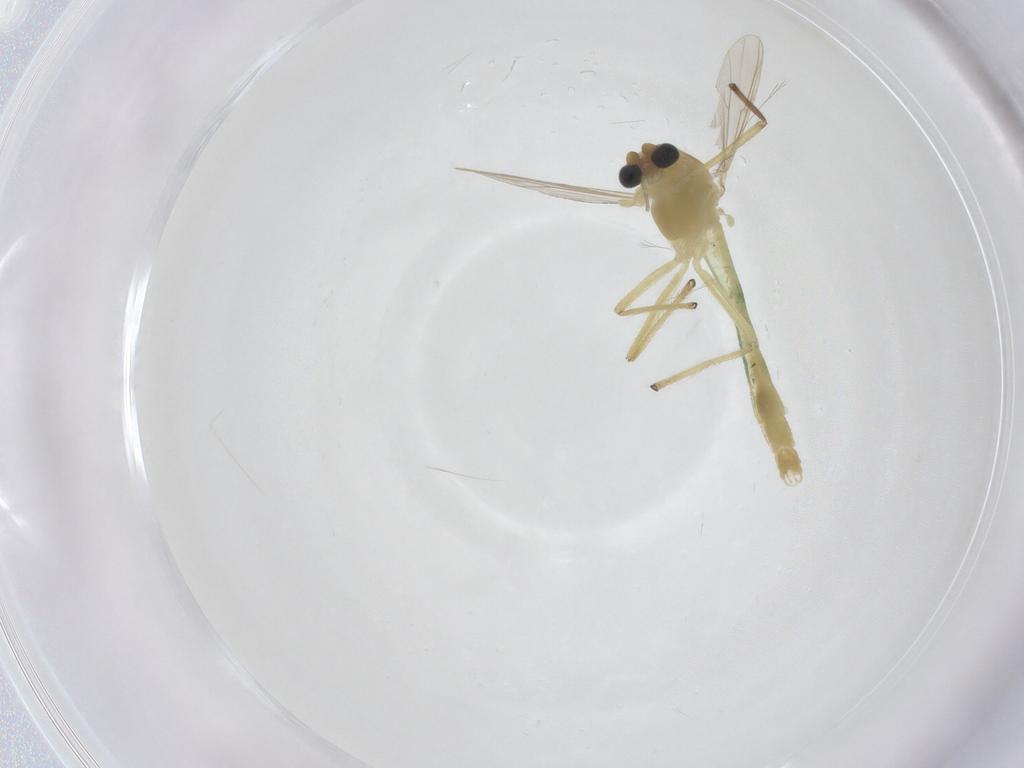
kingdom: Animalia
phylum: Arthropoda
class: Insecta
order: Diptera
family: Chironomidae
